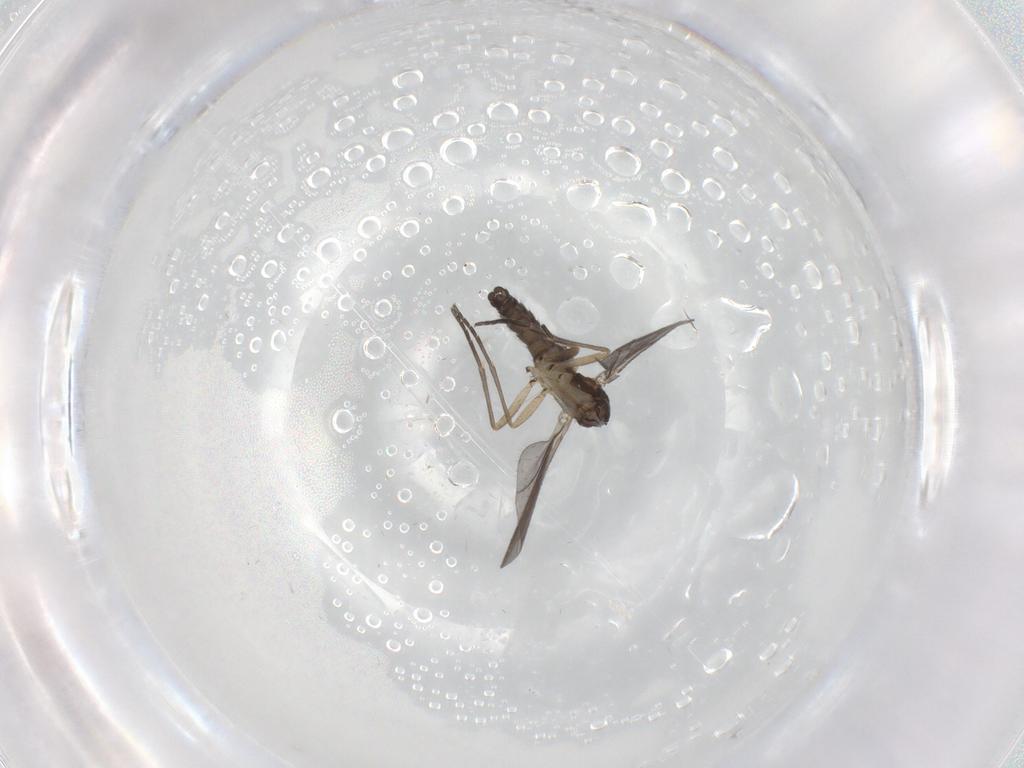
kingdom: Animalia
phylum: Arthropoda
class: Insecta
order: Diptera
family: Sciaridae
